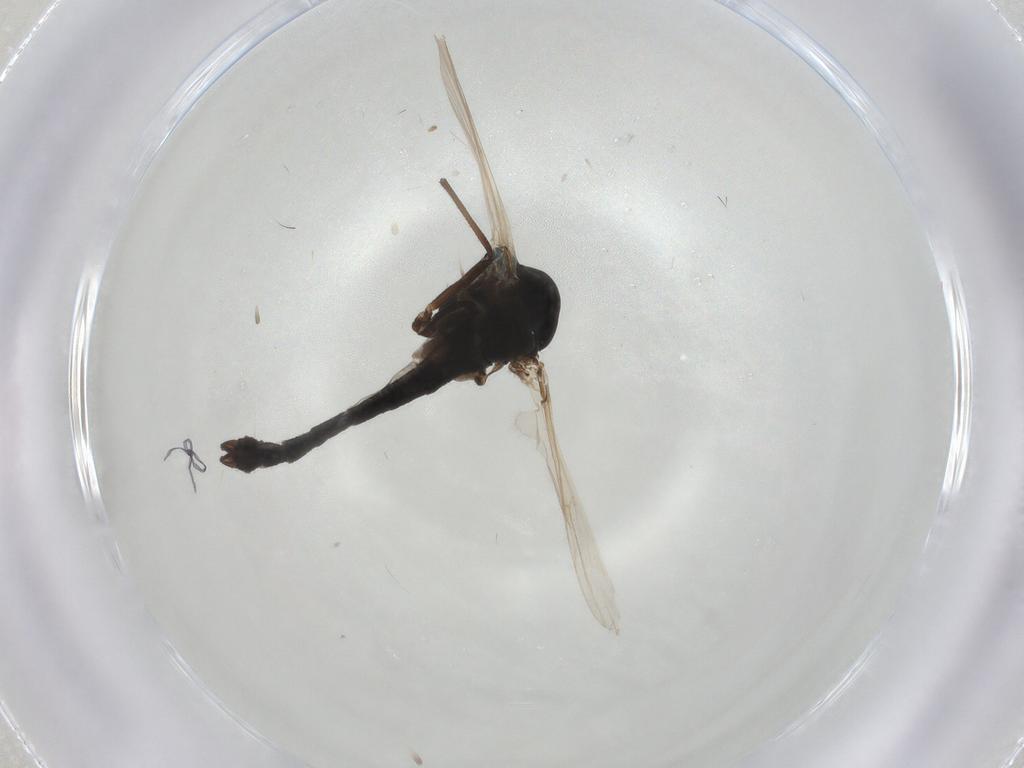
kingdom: Animalia
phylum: Arthropoda
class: Insecta
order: Diptera
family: Chironomidae
